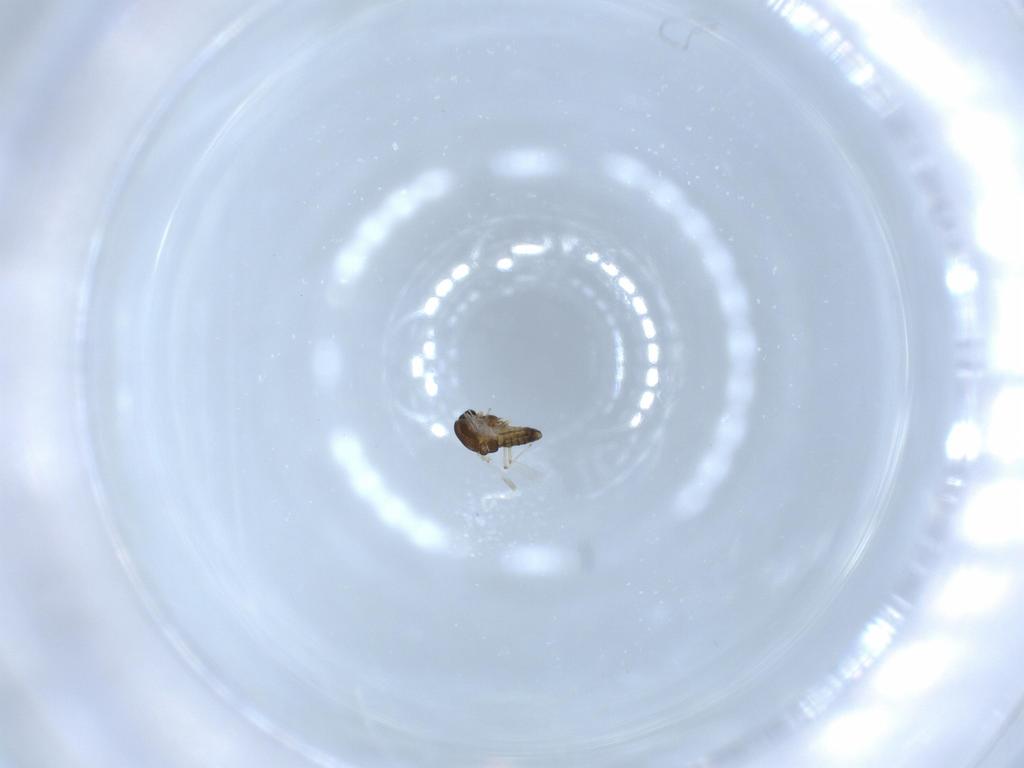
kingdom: Animalia
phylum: Arthropoda
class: Insecta
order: Diptera
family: Chironomidae
